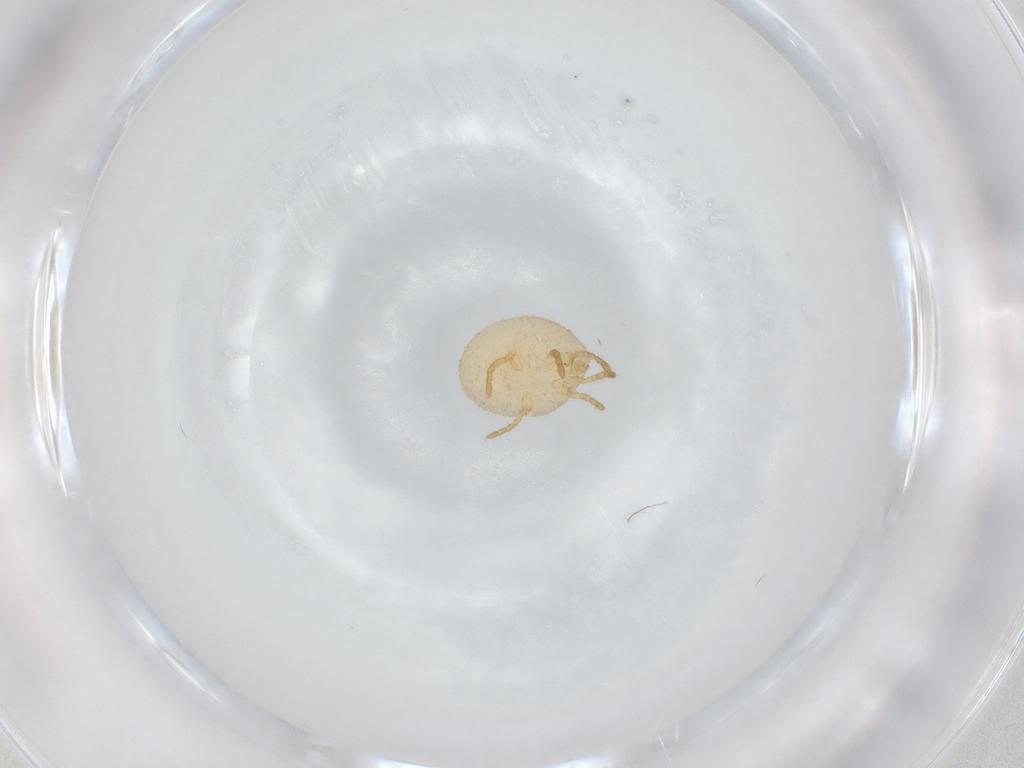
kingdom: Animalia
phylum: Arthropoda
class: Arachnida
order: Trombidiformes
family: Calyptostomatidae
